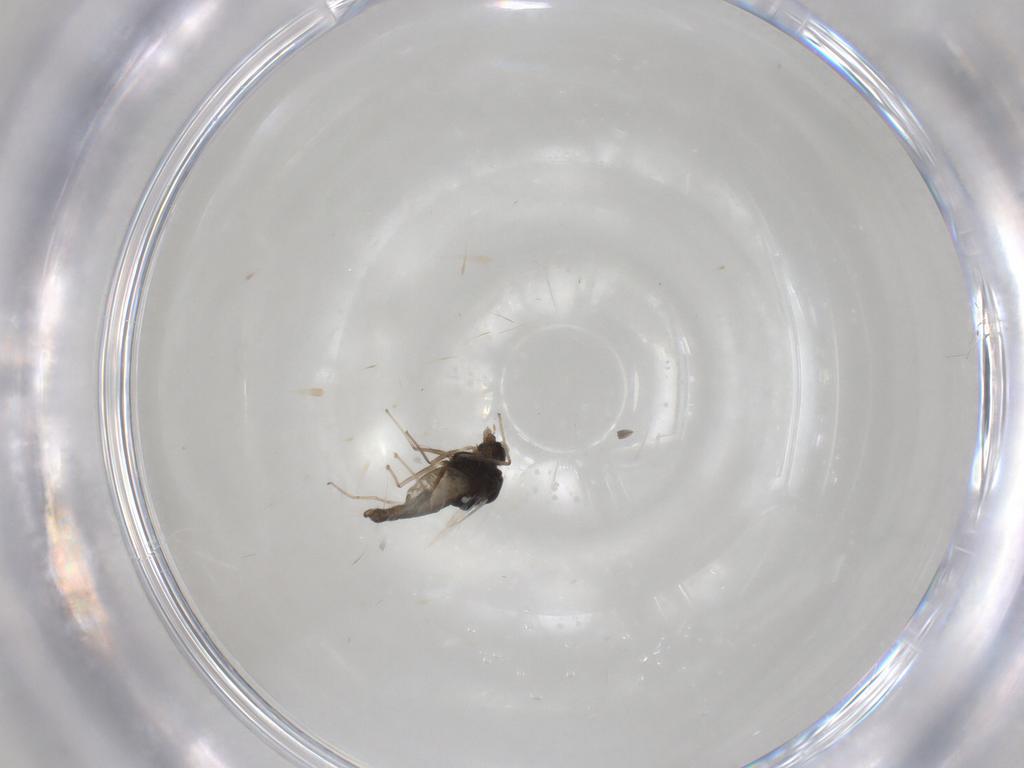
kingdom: Animalia
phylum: Arthropoda
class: Insecta
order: Diptera
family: Chironomidae
